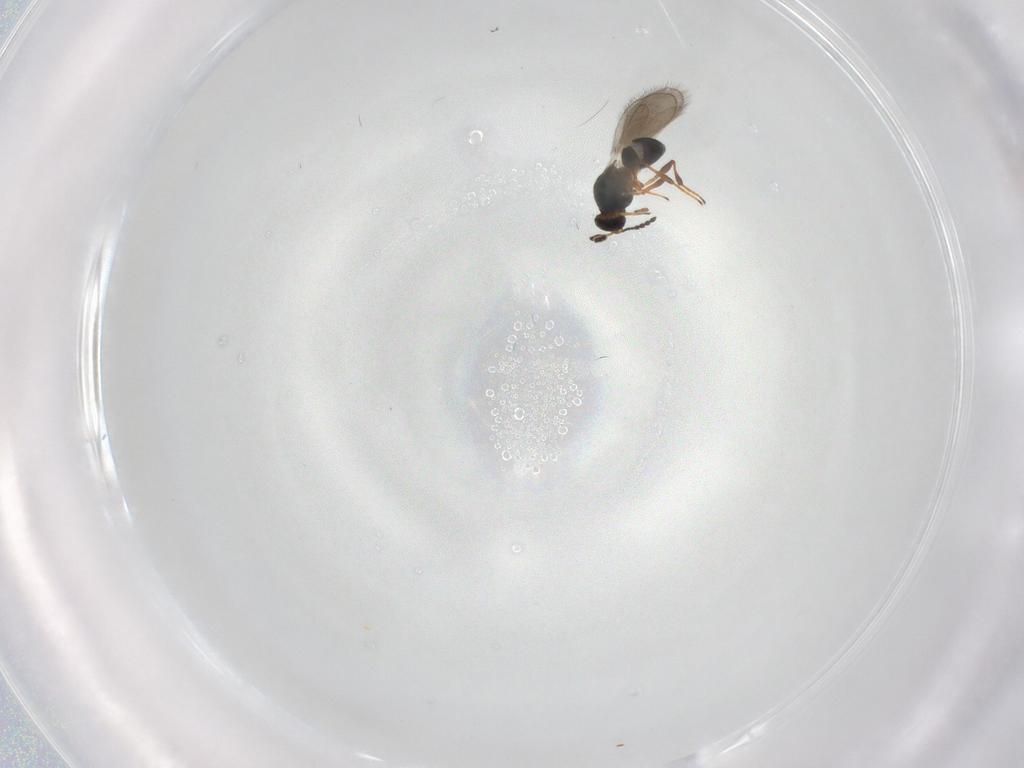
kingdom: Animalia
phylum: Arthropoda
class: Insecta
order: Hymenoptera
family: Platygastridae
